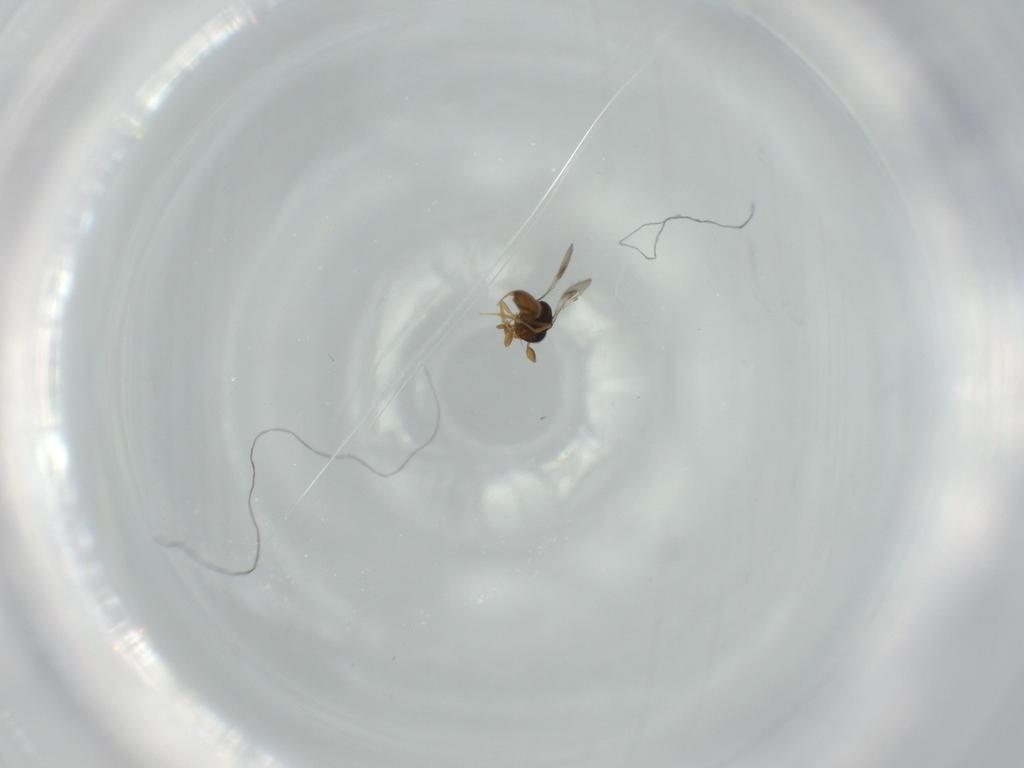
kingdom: Animalia
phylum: Arthropoda
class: Insecta
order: Hymenoptera
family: Scelionidae
